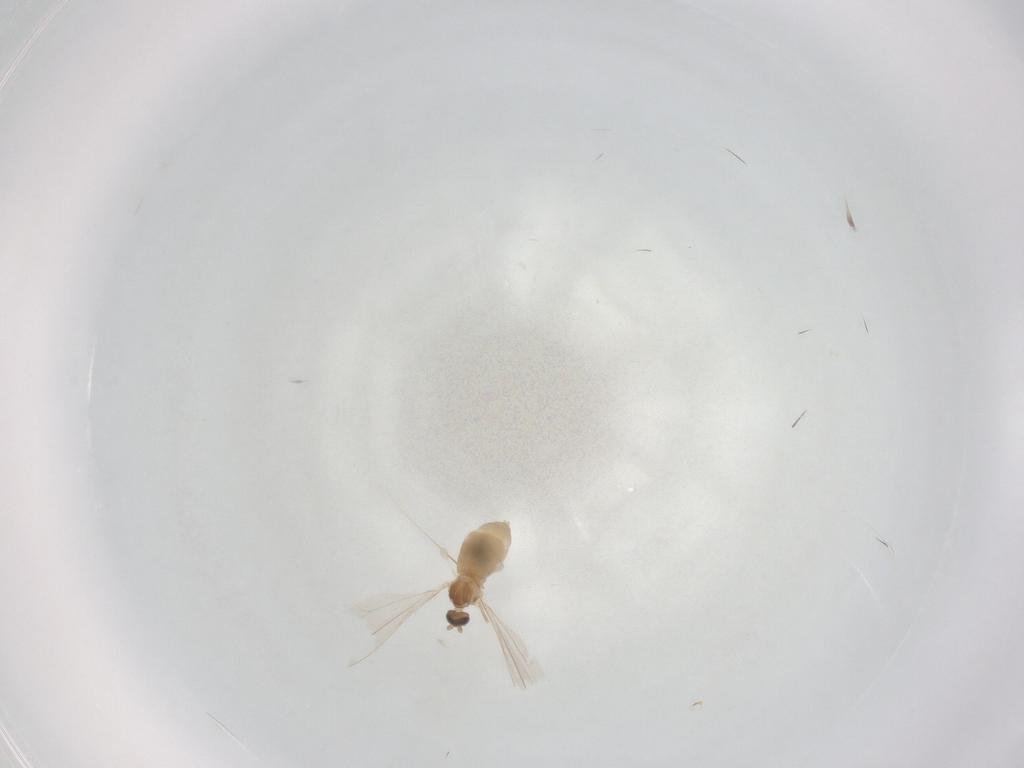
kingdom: Animalia
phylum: Arthropoda
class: Insecta
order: Diptera
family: Cecidomyiidae
